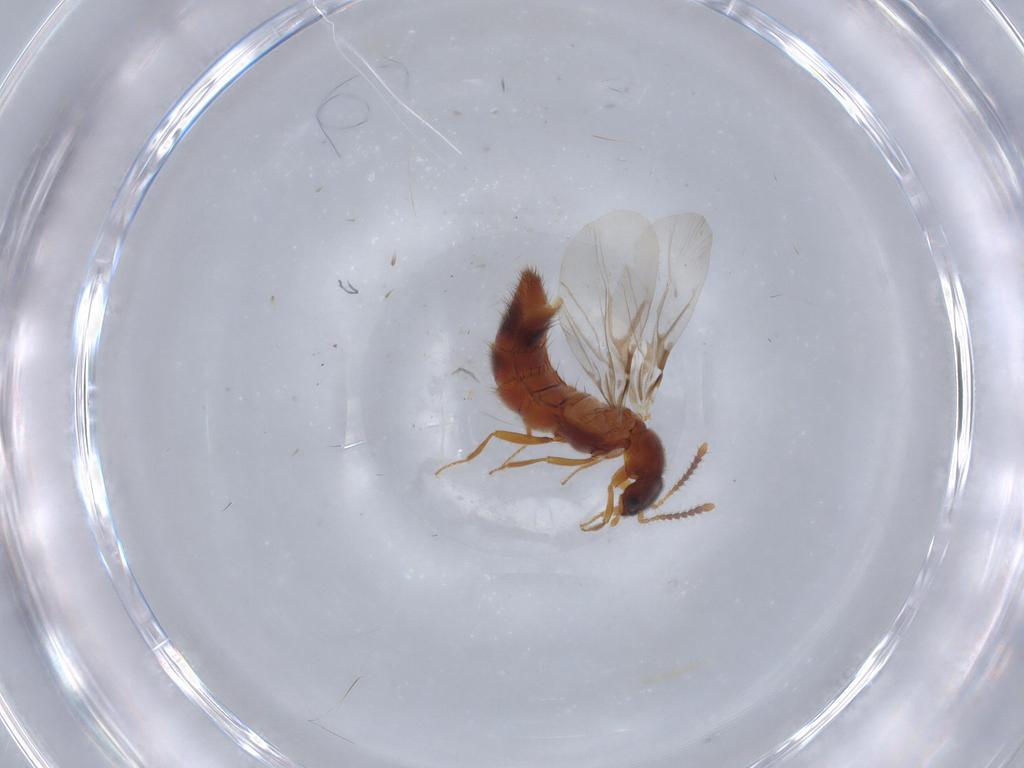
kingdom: Animalia
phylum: Arthropoda
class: Insecta
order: Coleoptera
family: Staphylinidae
